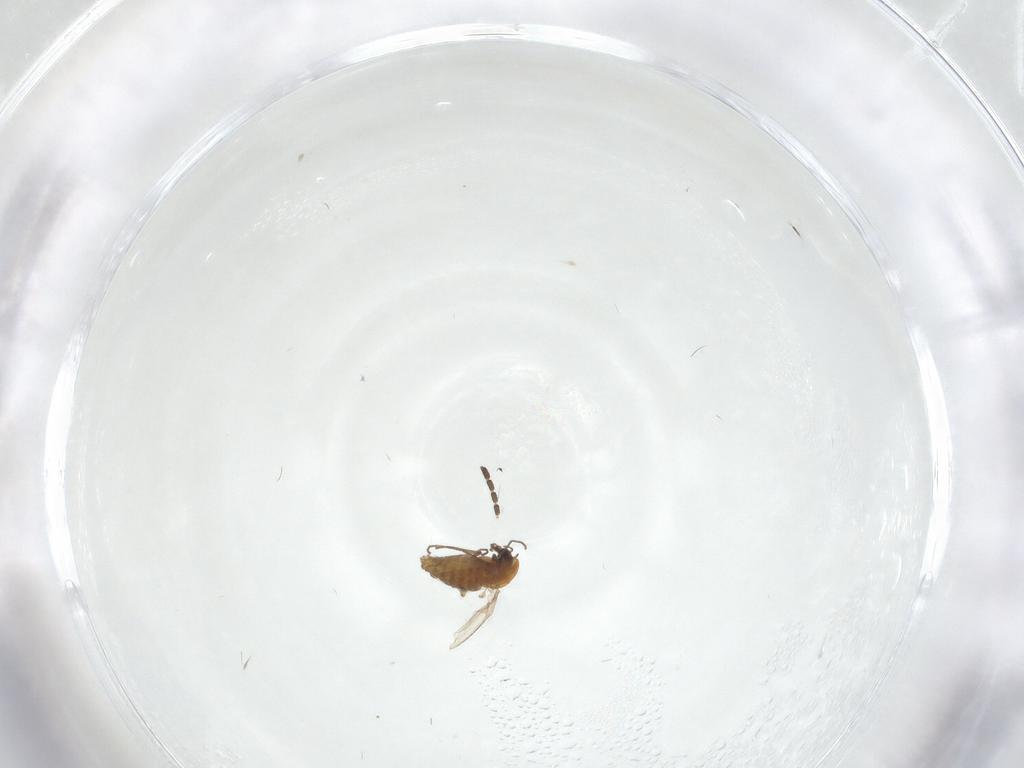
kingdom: Animalia
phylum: Arthropoda
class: Insecta
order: Diptera
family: Chironomidae
